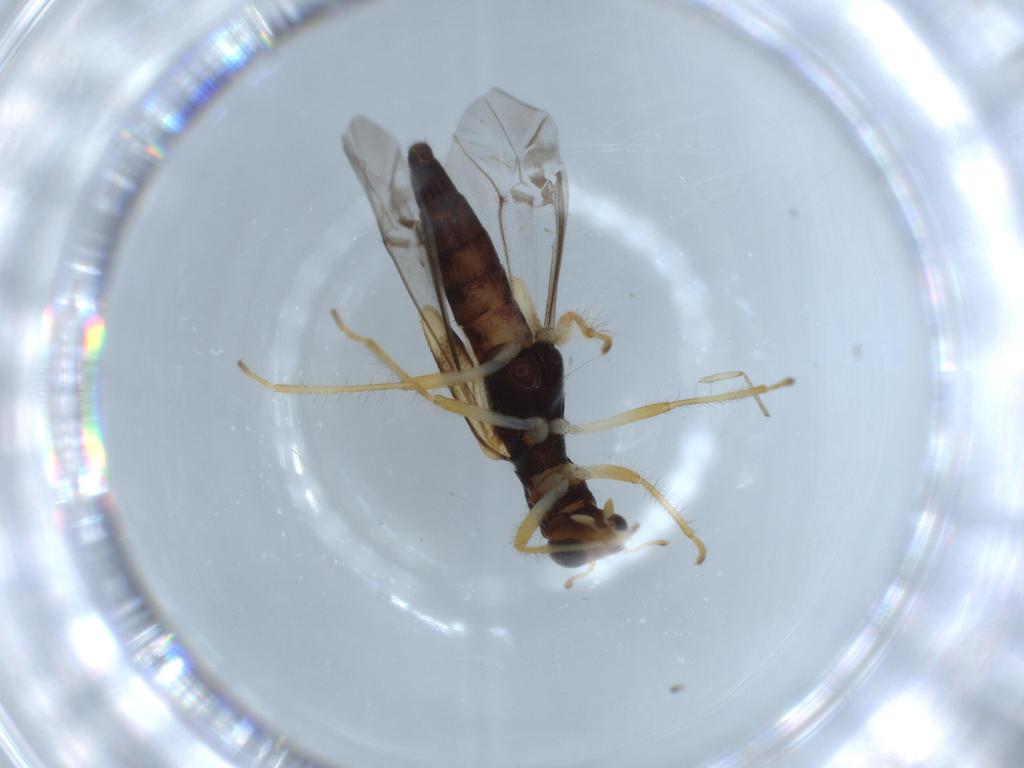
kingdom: Animalia
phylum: Arthropoda
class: Insecta
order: Coleoptera
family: Cleridae
